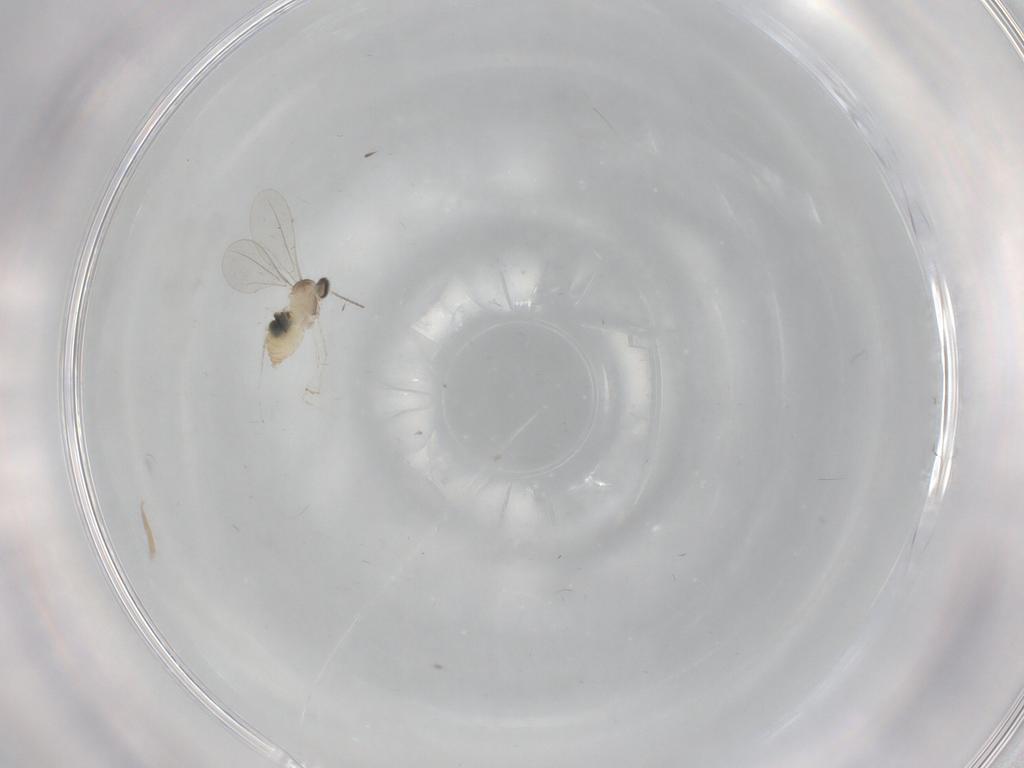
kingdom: Animalia
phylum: Arthropoda
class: Insecta
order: Diptera
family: Cecidomyiidae
